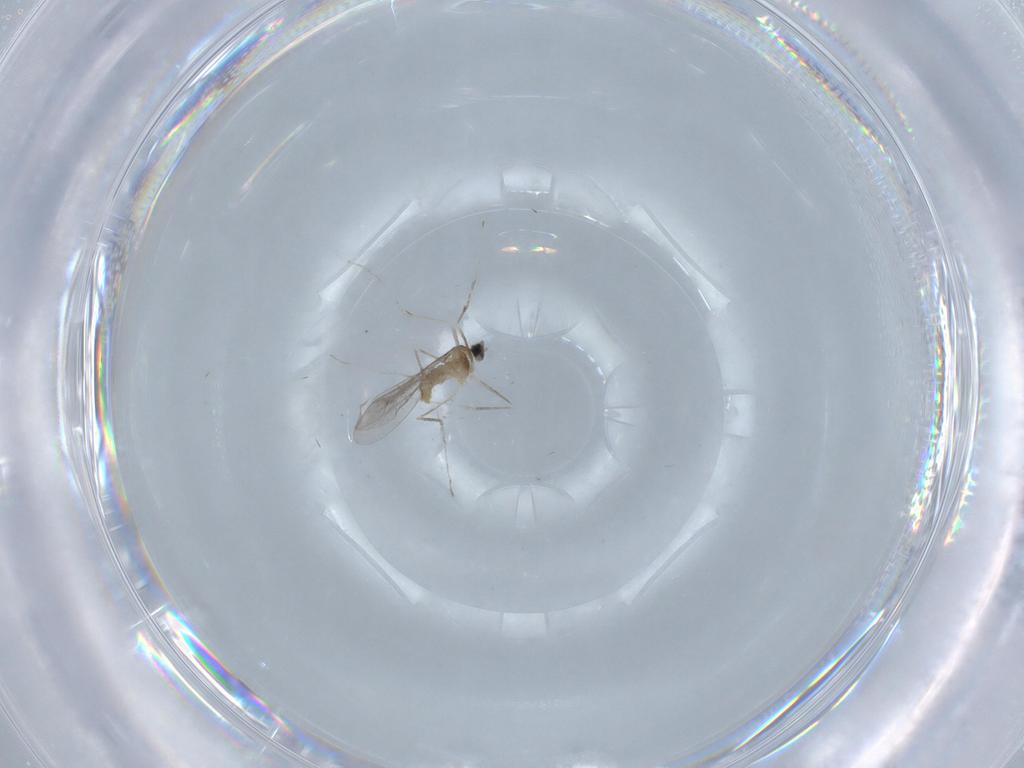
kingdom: Animalia
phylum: Arthropoda
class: Insecta
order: Diptera
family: Cecidomyiidae
